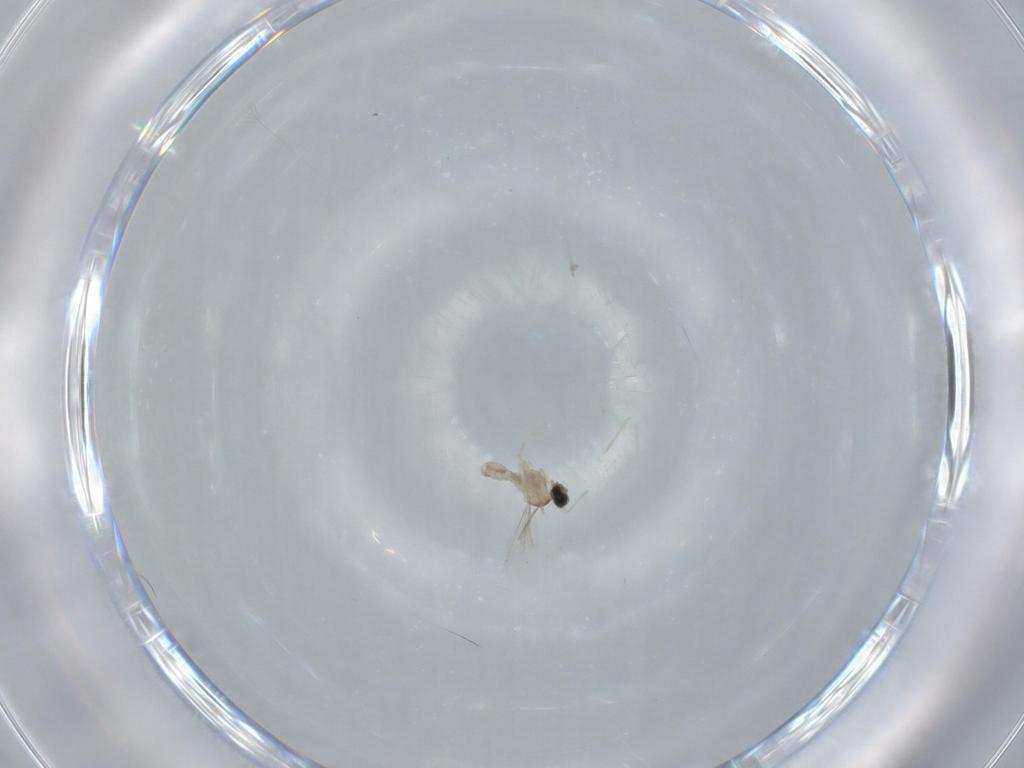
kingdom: Animalia
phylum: Arthropoda
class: Insecta
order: Diptera
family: Cecidomyiidae
